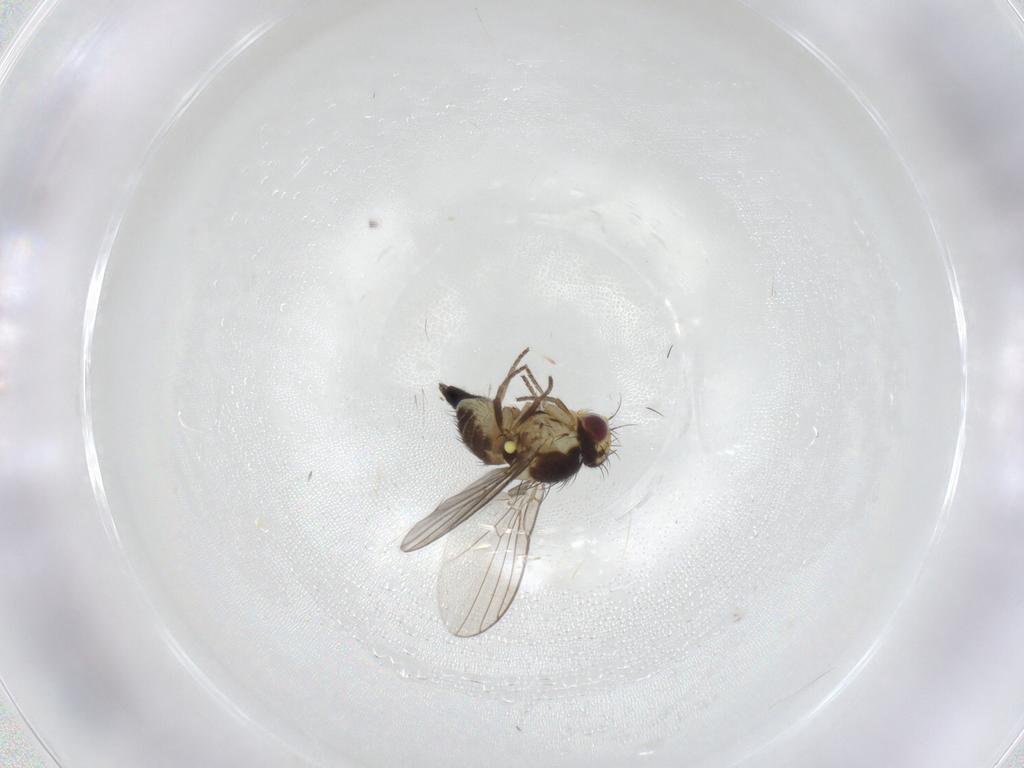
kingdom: Animalia
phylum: Arthropoda
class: Insecta
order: Diptera
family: Agromyzidae
